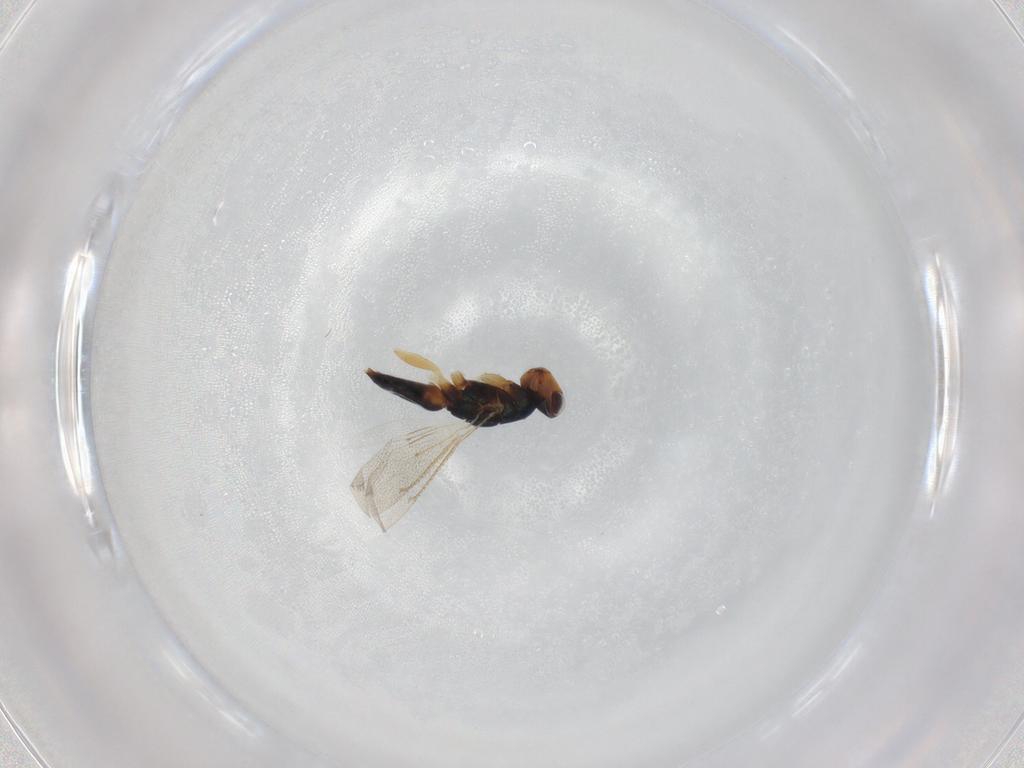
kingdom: Animalia
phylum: Arthropoda
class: Insecta
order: Hymenoptera
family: Eulophidae
